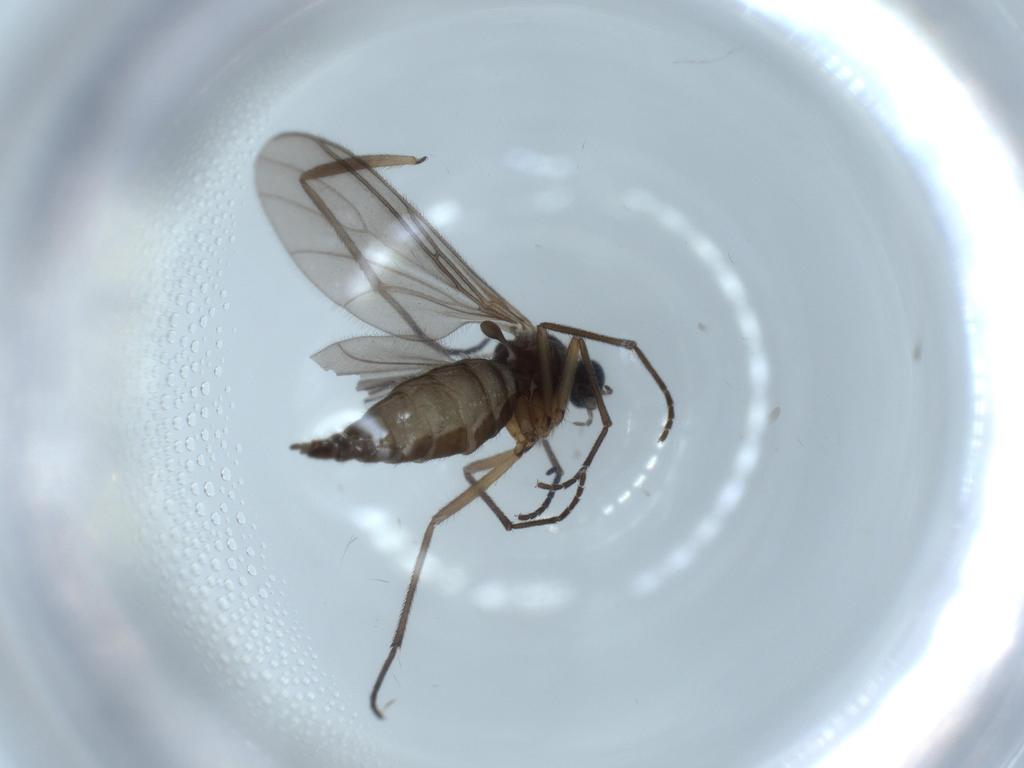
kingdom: Animalia
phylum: Arthropoda
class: Insecta
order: Diptera
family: Sciaridae
